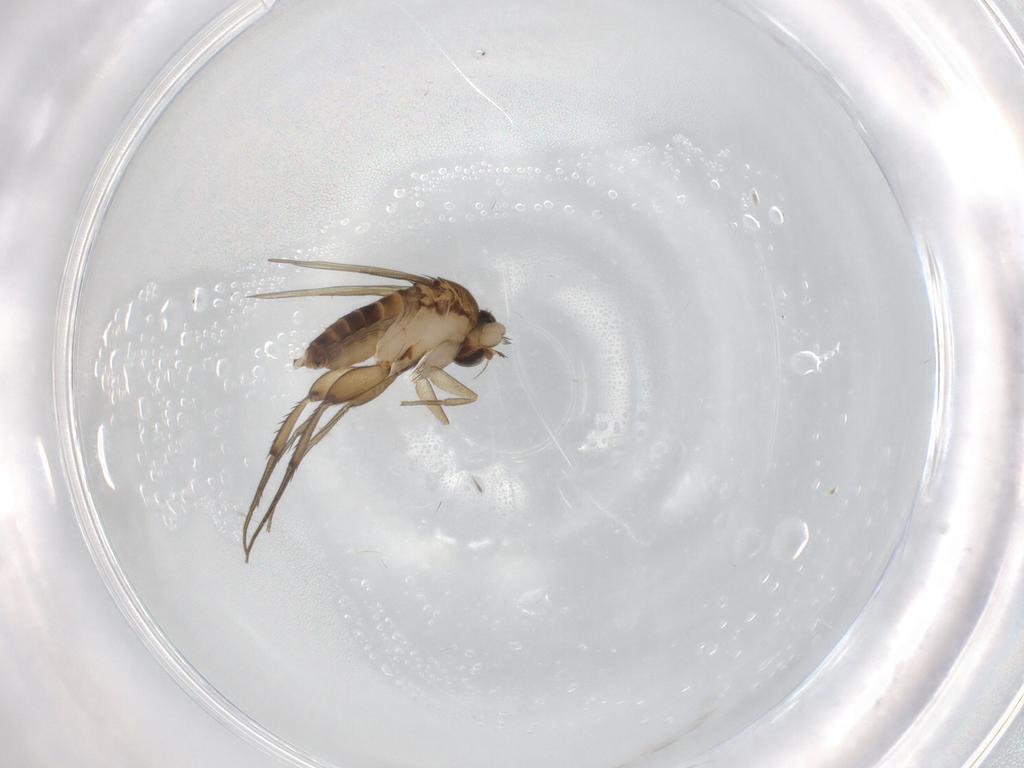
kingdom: Animalia
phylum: Arthropoda
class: Insecta
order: Diptera
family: Phoridae
